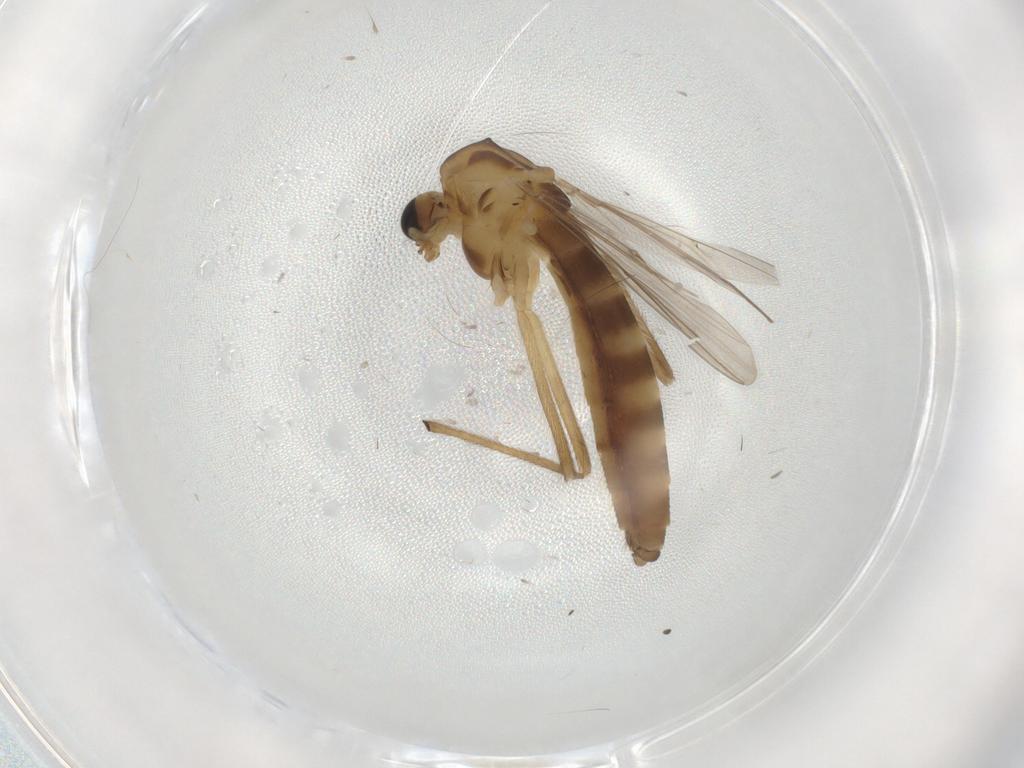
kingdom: Animalia
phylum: Arthropoda
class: Insecta
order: Diptera
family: Chironomidae
